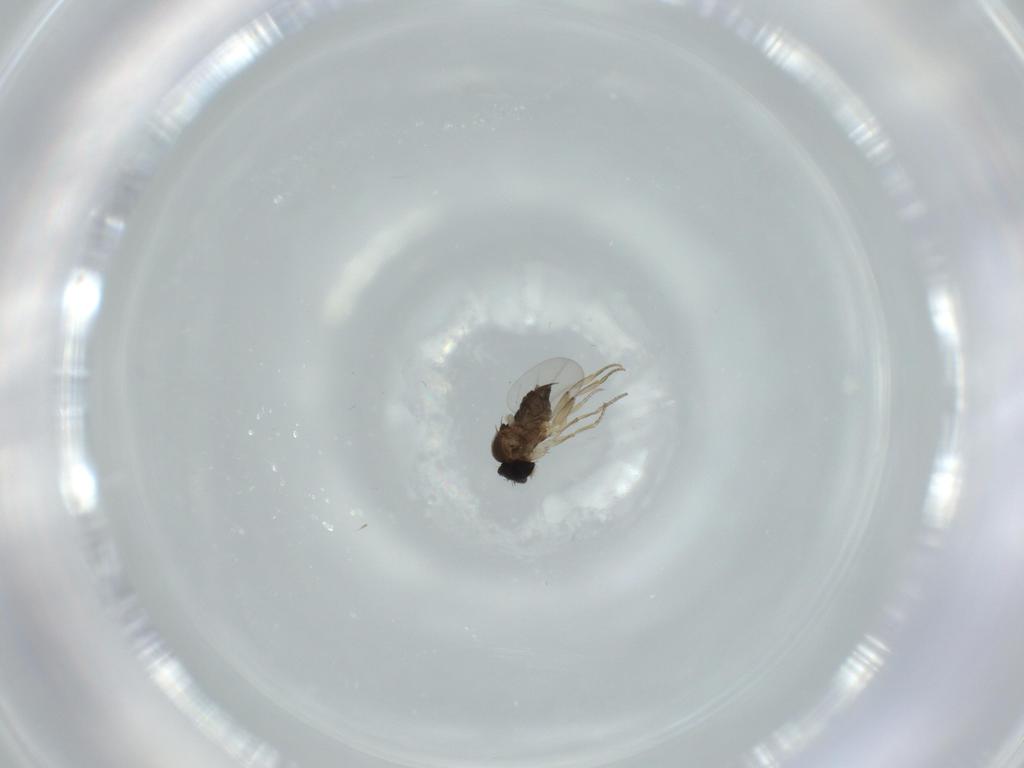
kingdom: Animalia
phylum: Arthropoda
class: Insecta
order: Diptera
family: Phoridae
